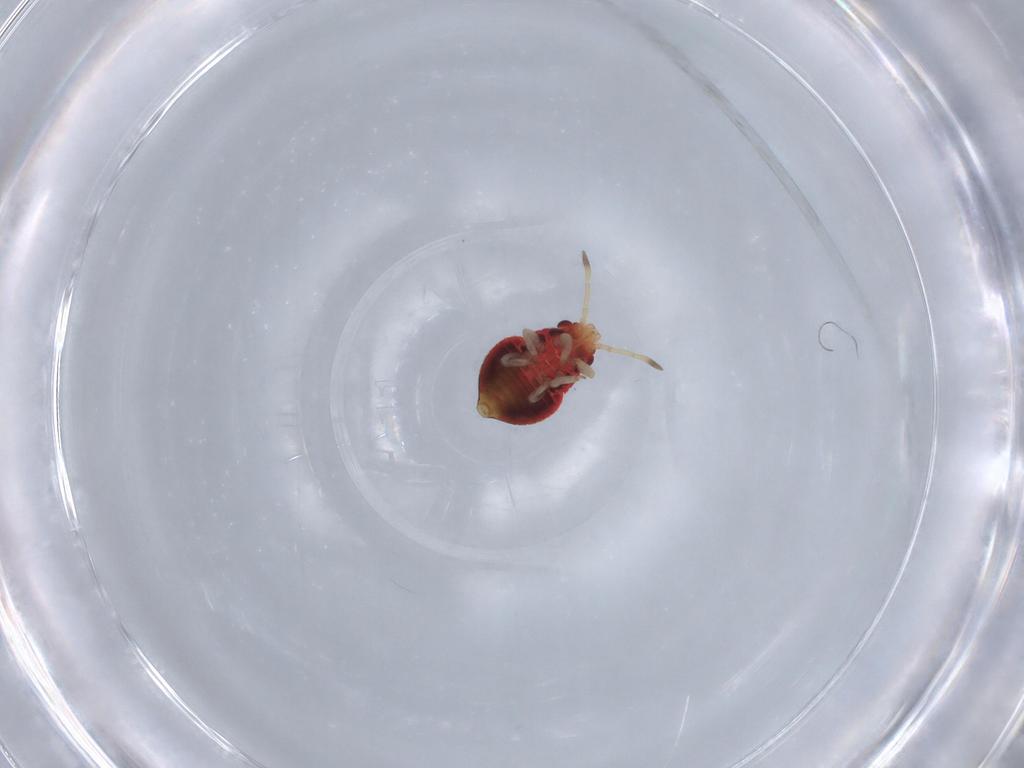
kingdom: Animalia
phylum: Arthropoda
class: Insecta
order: Hemiptera
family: Thaumastocoridae
